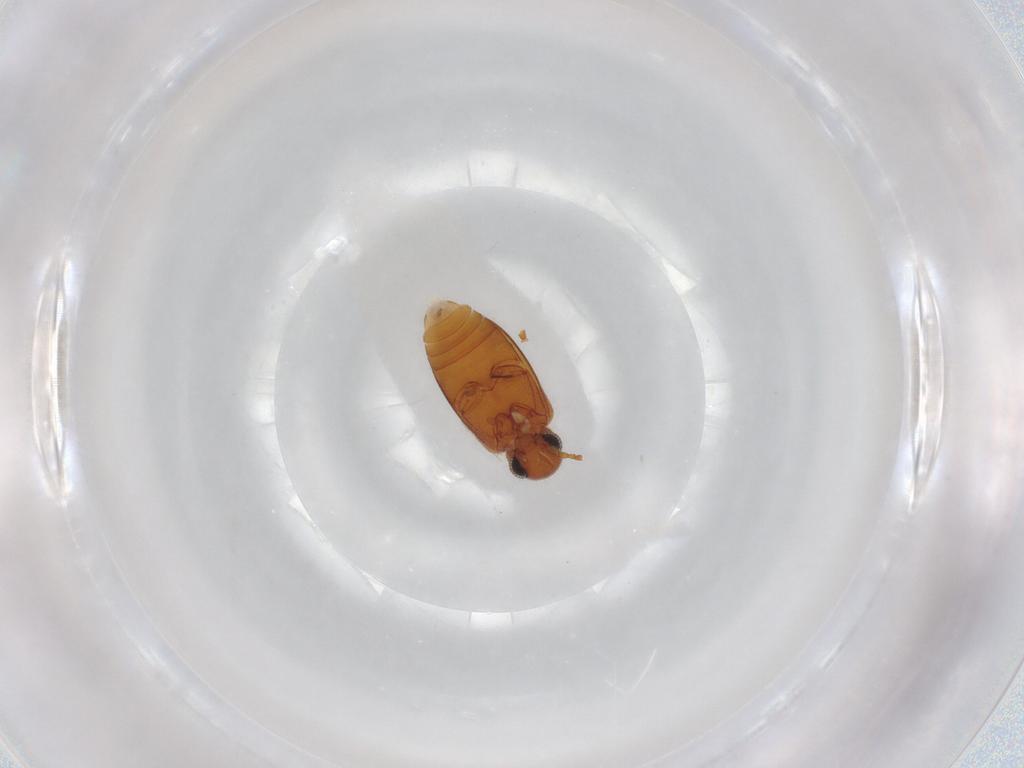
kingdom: Animalia
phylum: Arthropoda
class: Insecta
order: Coleoptera
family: Aderidae
